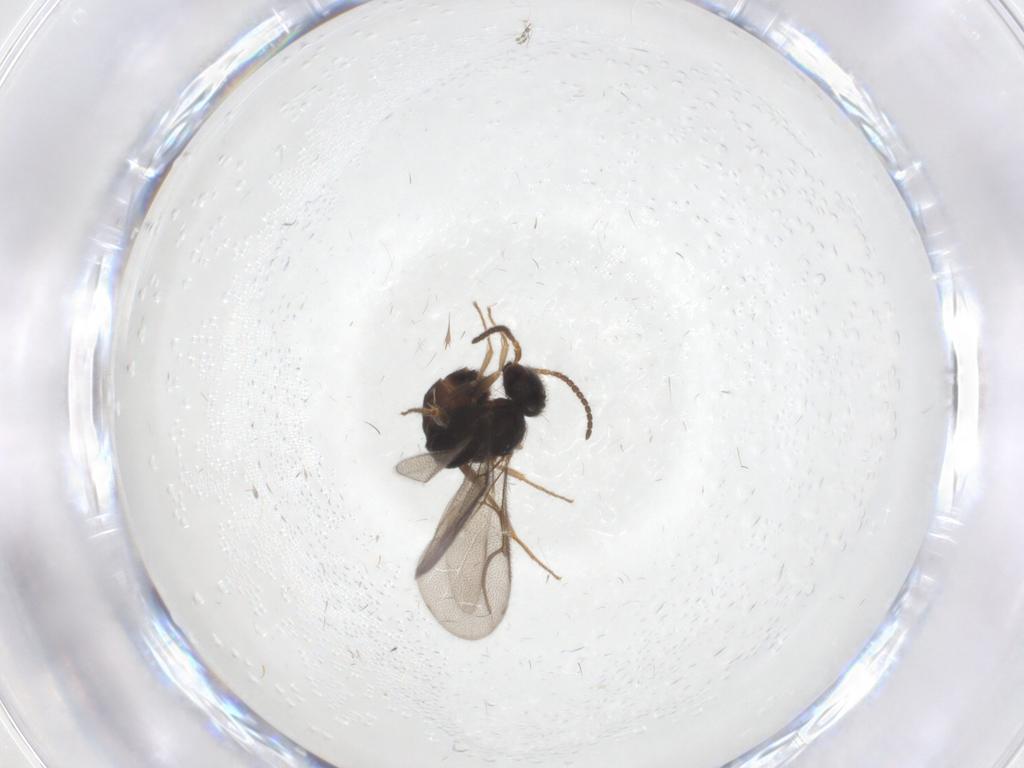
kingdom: Animalia
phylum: Arthropoda
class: Insecta
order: Hymenoptera
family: Bethylidae
